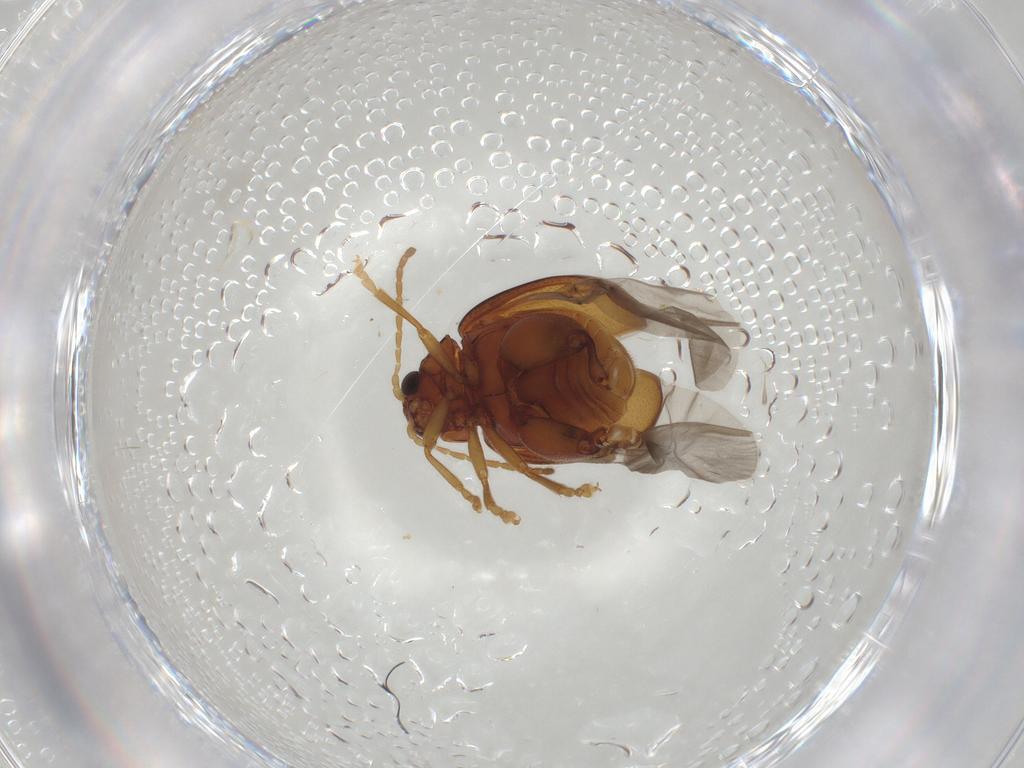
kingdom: Animalia
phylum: Arthropoda
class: Insecta
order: Coleoptera
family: Chrysomelidae
